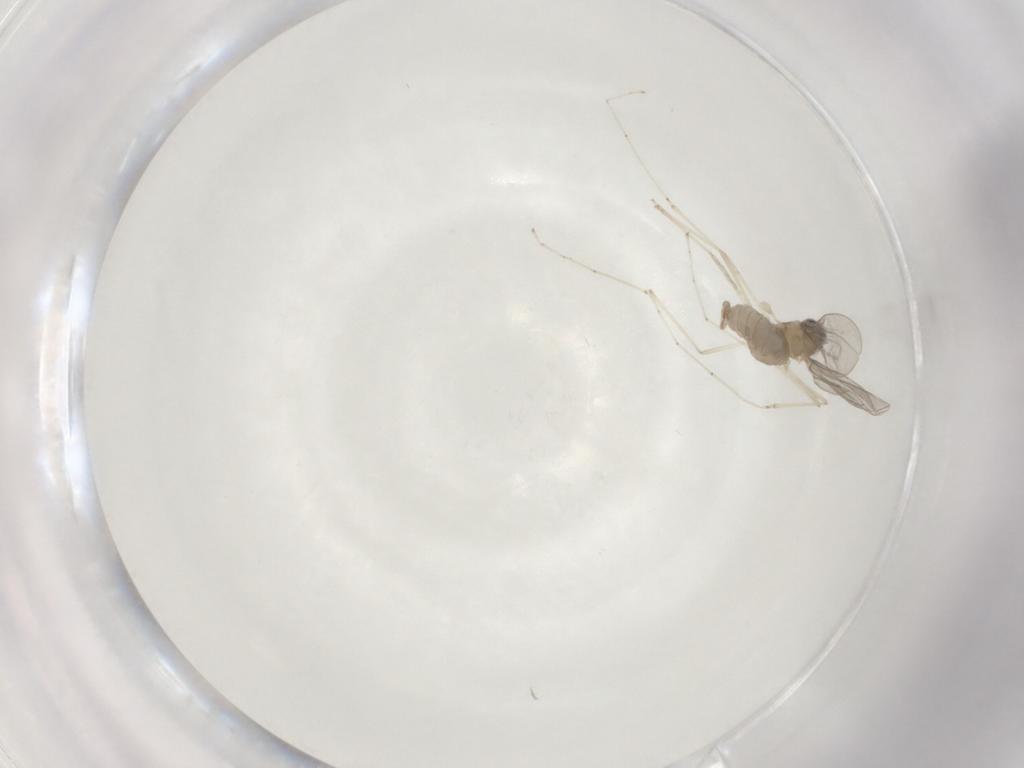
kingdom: Animalia
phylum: Arthropoda
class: Insecta
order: Diptera
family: Cecidomyiidae
